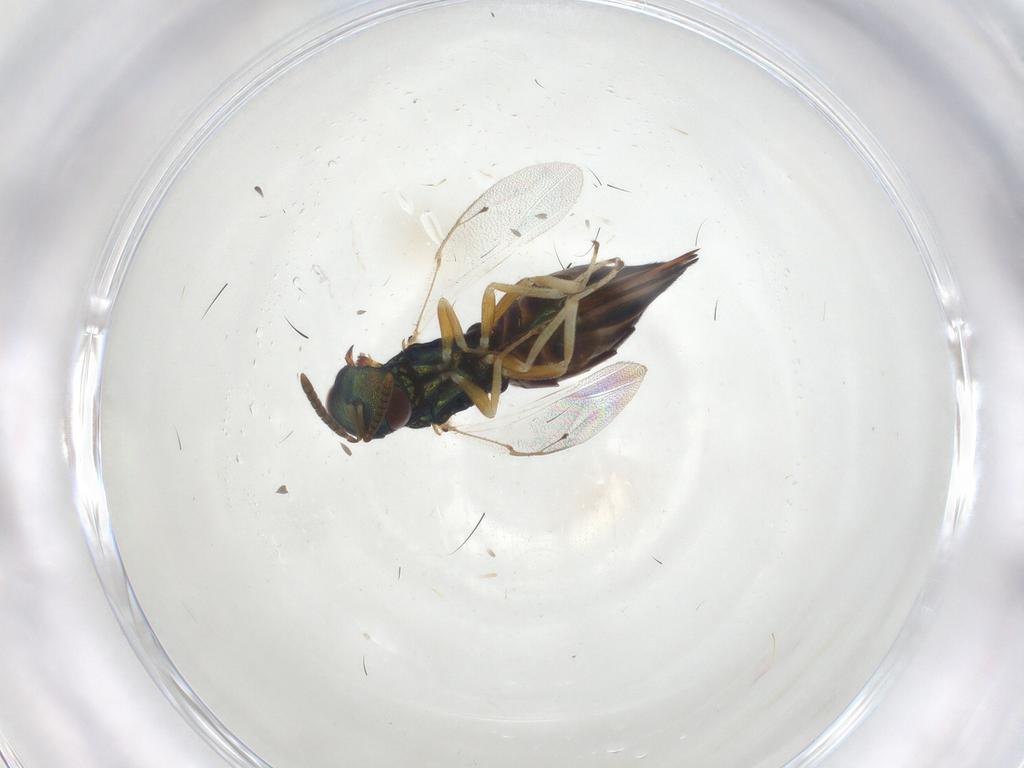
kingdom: Animalia
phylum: Arthropoda
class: Insecta
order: Hymenoptera
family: Pteromalidae
